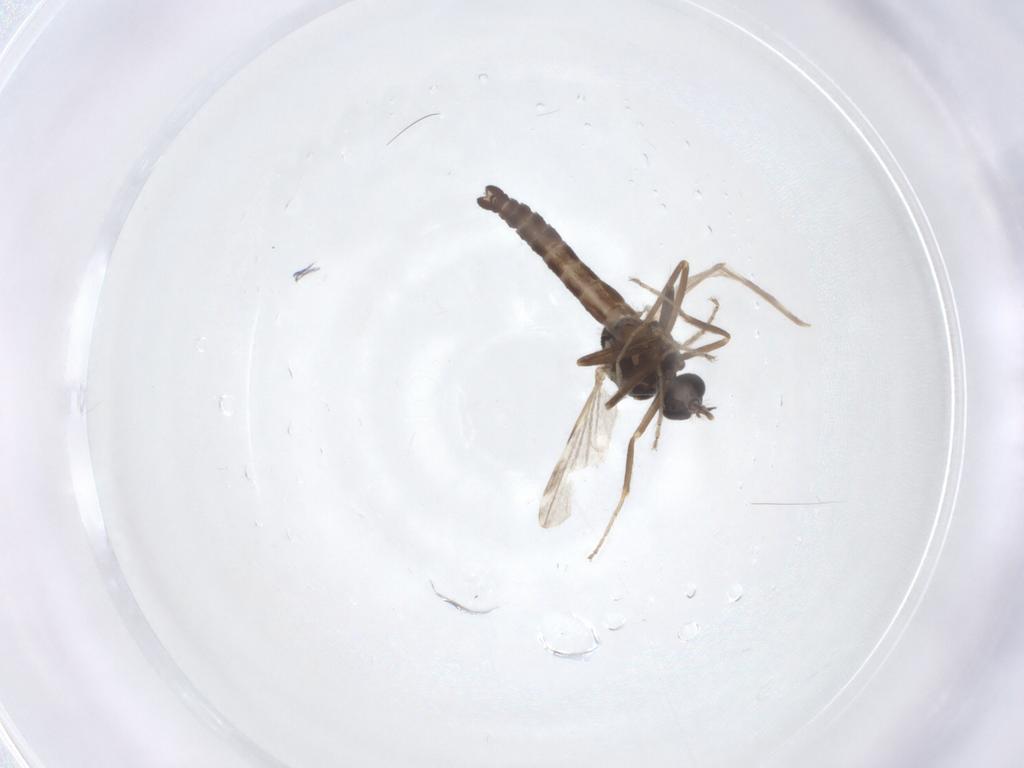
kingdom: Animalia
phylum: Arthropoda
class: Insecta
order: Diptera
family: Ceratopogonidae
